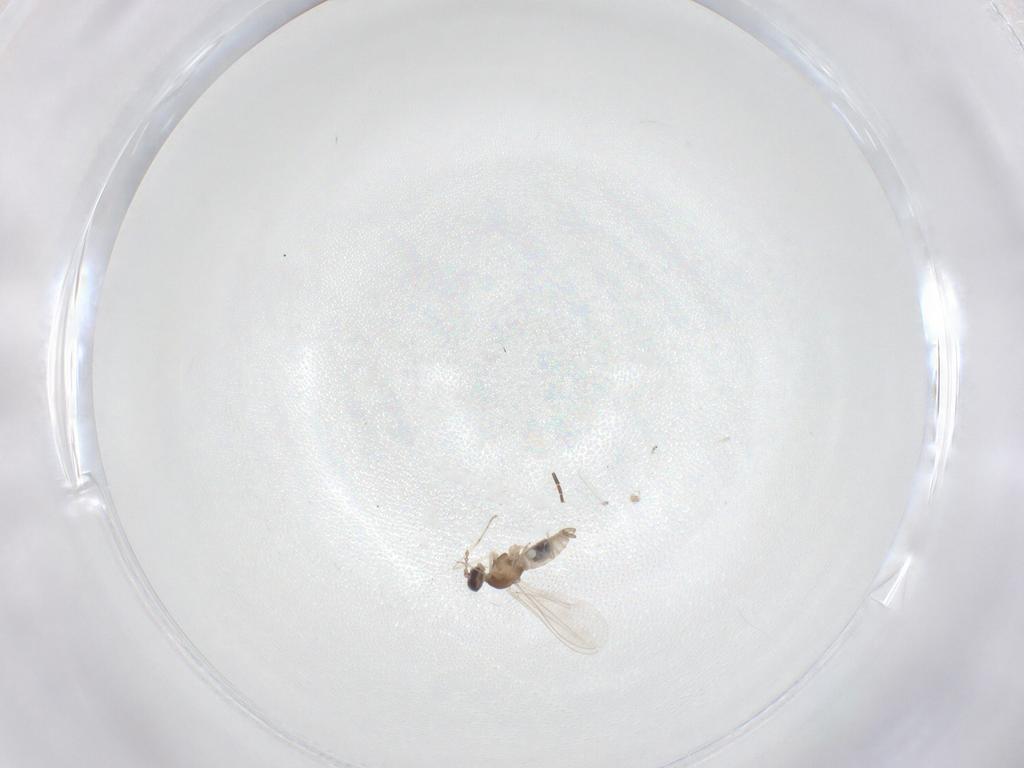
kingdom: Animalia
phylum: Arthropoda
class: Insecta
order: Diptera
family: Cecidomyiidae
